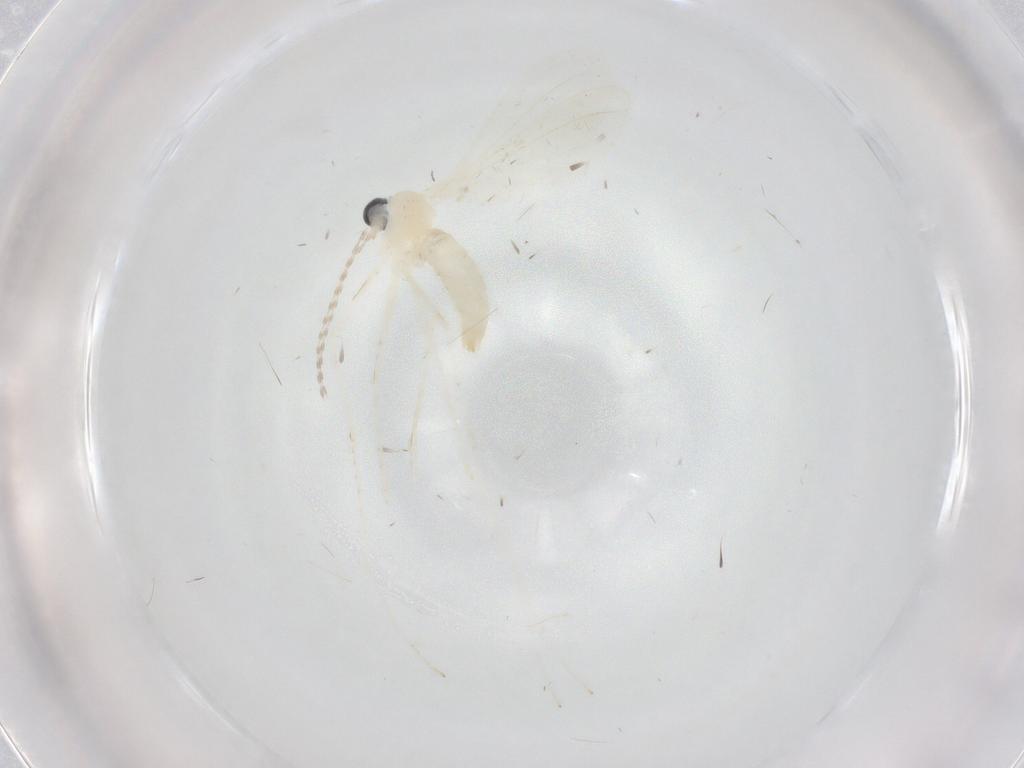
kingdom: Animalia
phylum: Arthropoda
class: Insecta
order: Diptera
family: Cecidomyiidae
